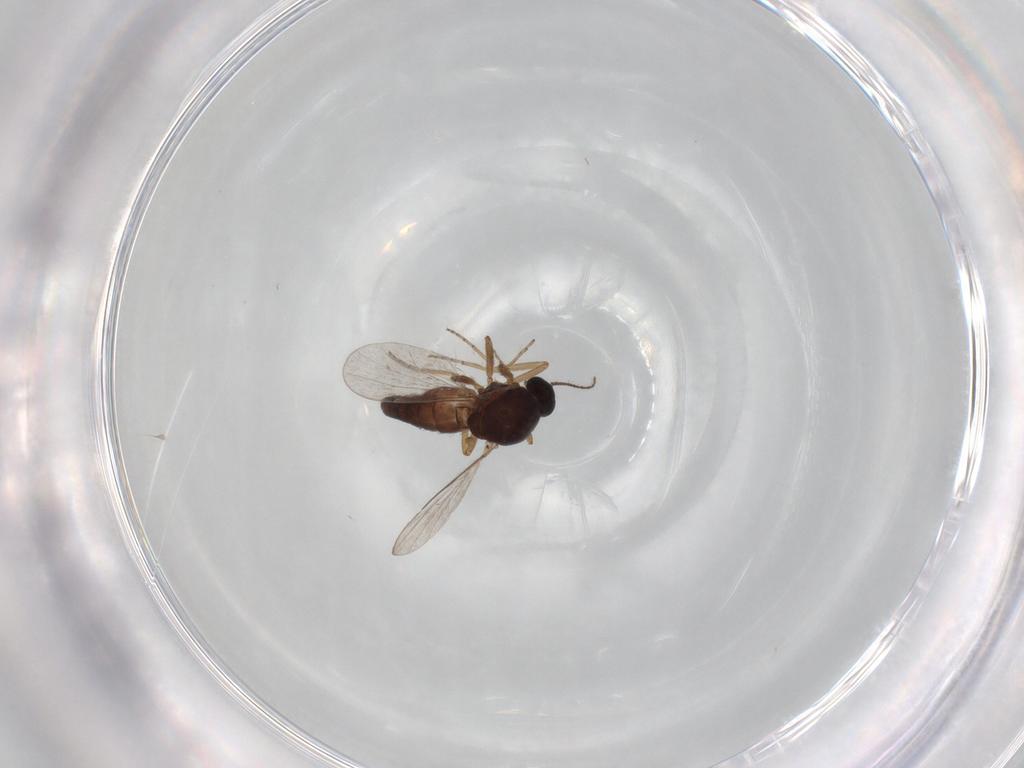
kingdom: Animalia
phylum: Arthropoda
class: Insecta
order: Diptera
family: Ceratopogonidae
